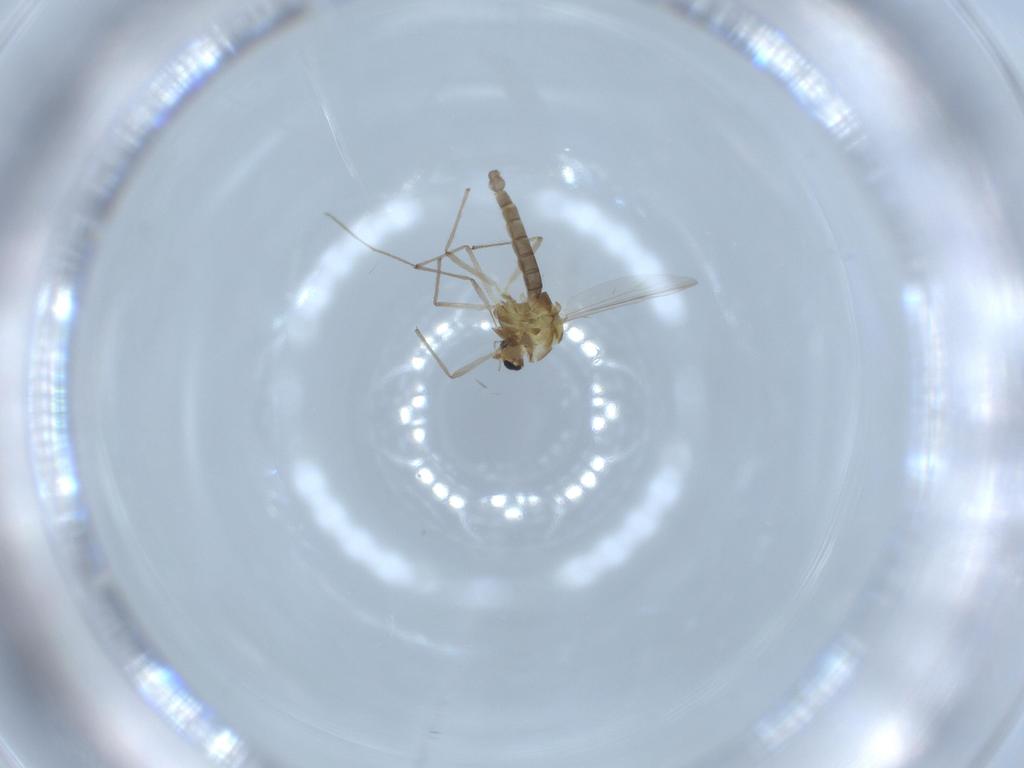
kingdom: Animalia
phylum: Arthropoda
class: Insecta
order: Diptera
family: Chironomidae
